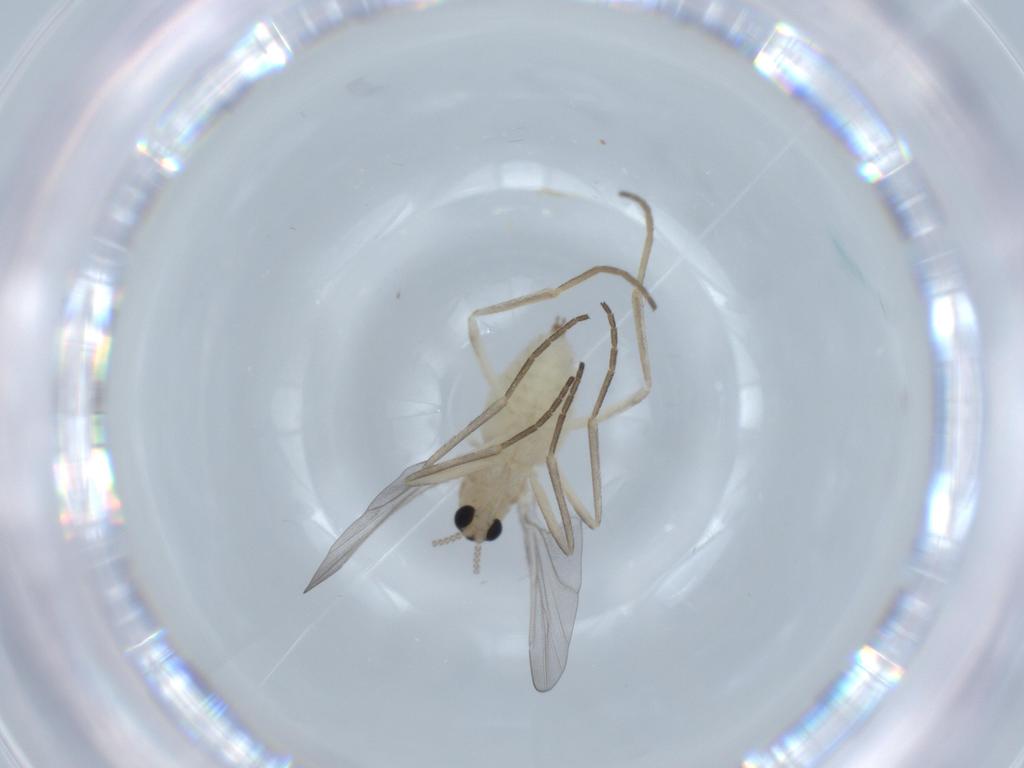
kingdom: Animalia
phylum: Arthropoda
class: Insecta
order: Diptera
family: Cecidomyiidae
